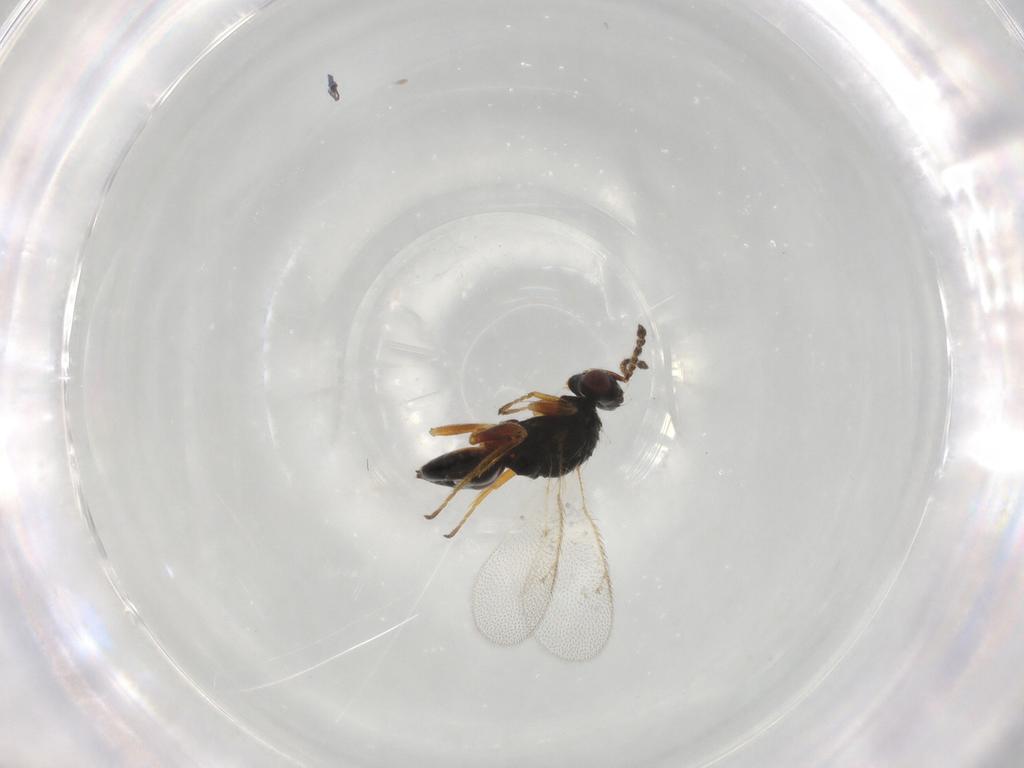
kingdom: Animalia
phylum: Arthropoda
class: Insecta
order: Hymenoptera
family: Eulophidae
